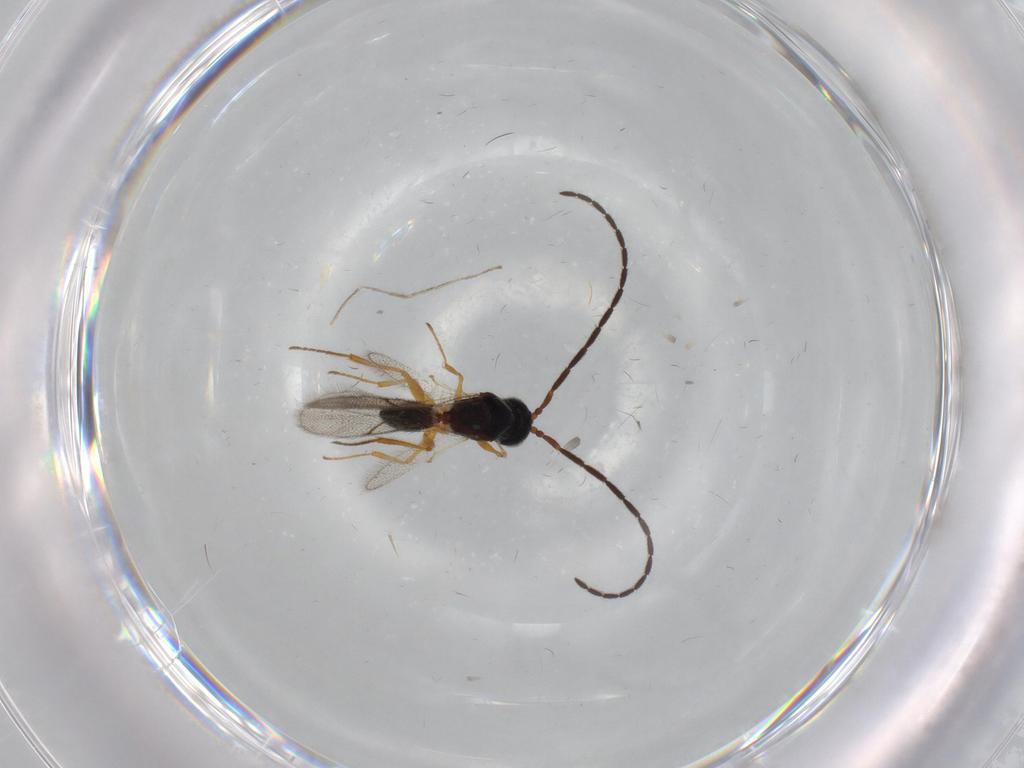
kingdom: Animalia
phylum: Arthropoda
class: Insecta
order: Hymenoptera
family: Figitidae
